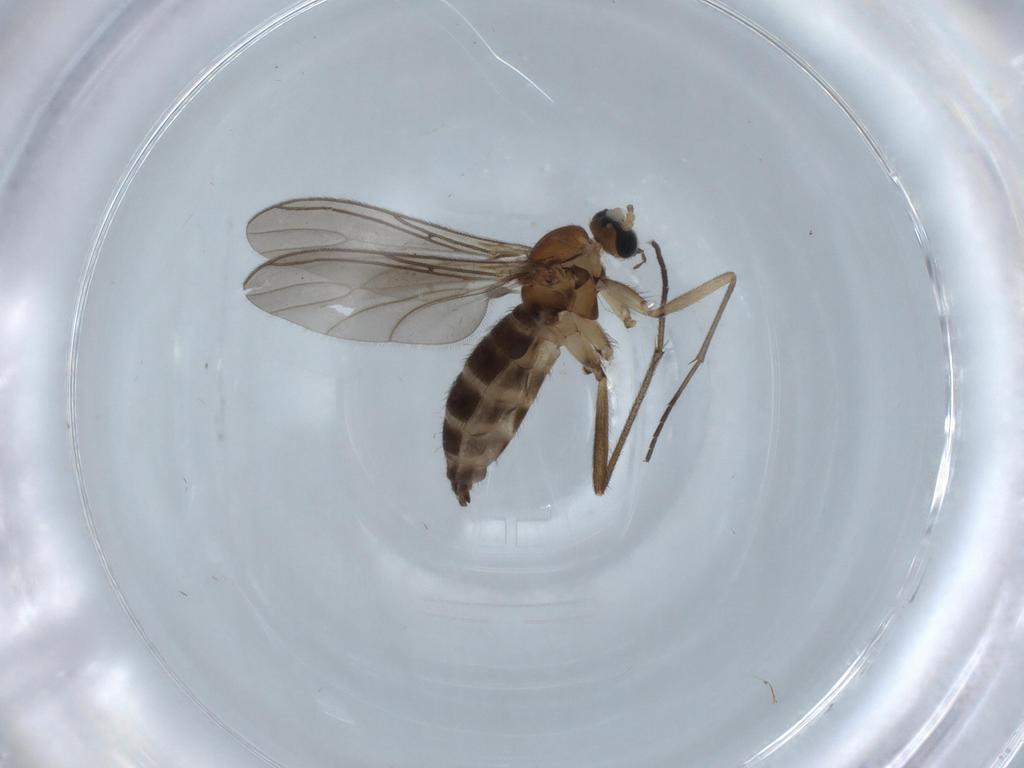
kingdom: Animalia
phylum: Arthropoda
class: Insecta
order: Diptera
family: Sciaridae
